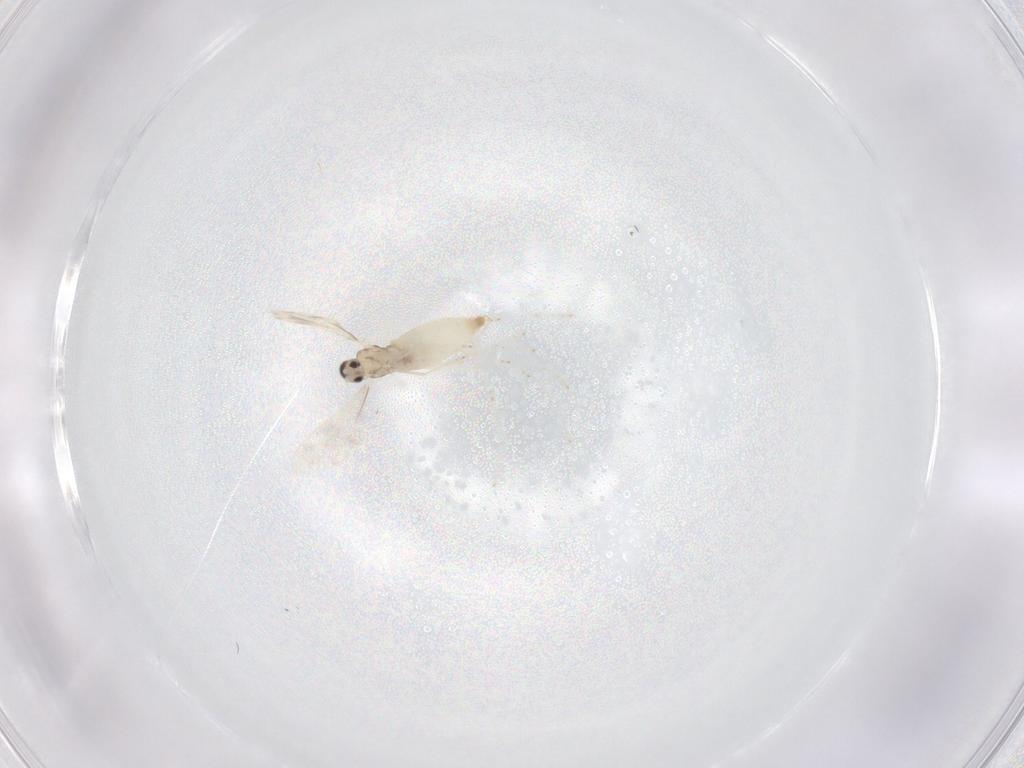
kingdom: Animalia
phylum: Arthropoda
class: Insecta
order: Diptera
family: Cecidomyiidae
